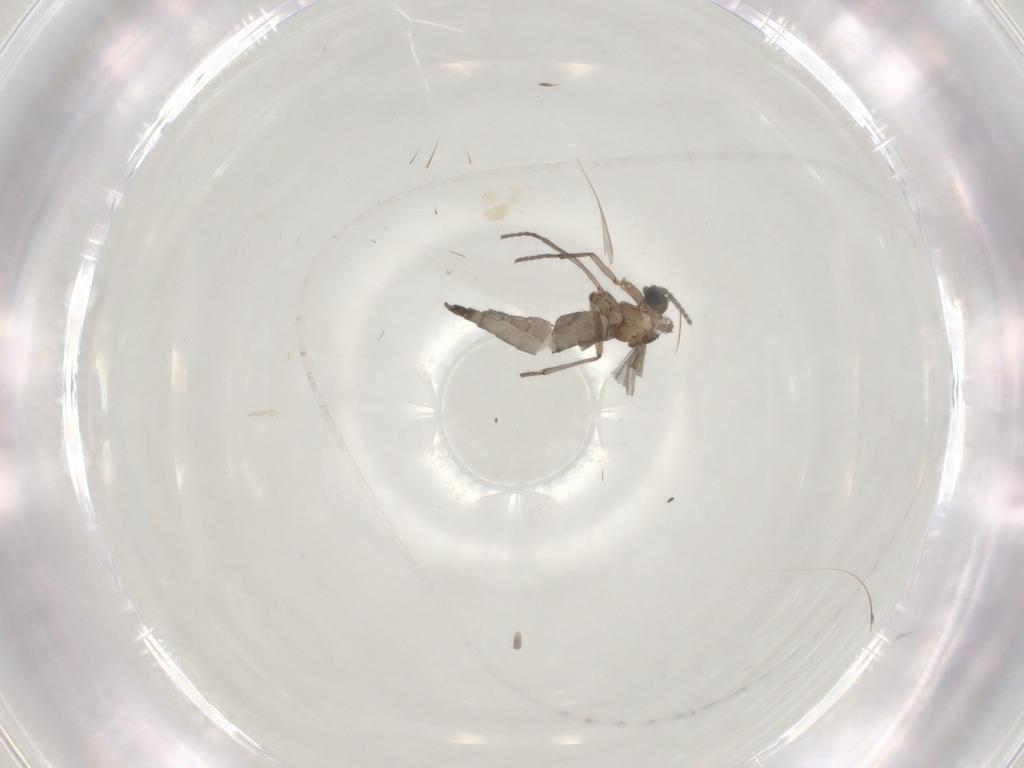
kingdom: Animalia
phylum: Arthropoda
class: Insecta
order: Diptera
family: Sciaridae
